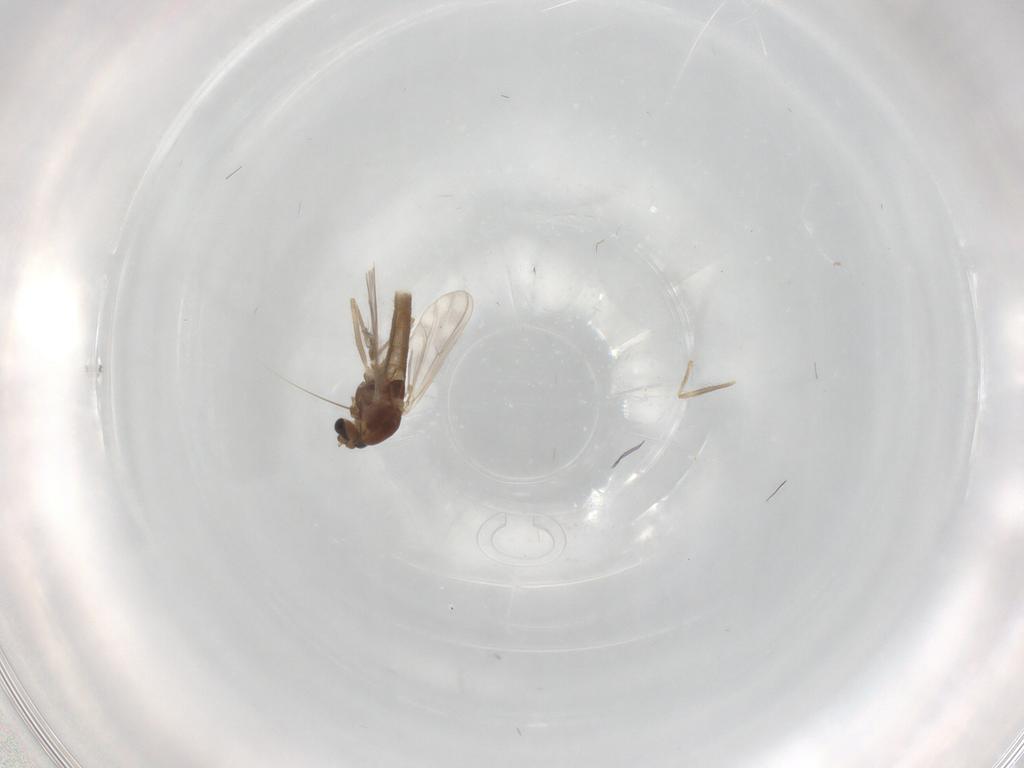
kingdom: Animalia
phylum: Arthropoda
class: Insecta
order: Diptera
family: Chironomidae
